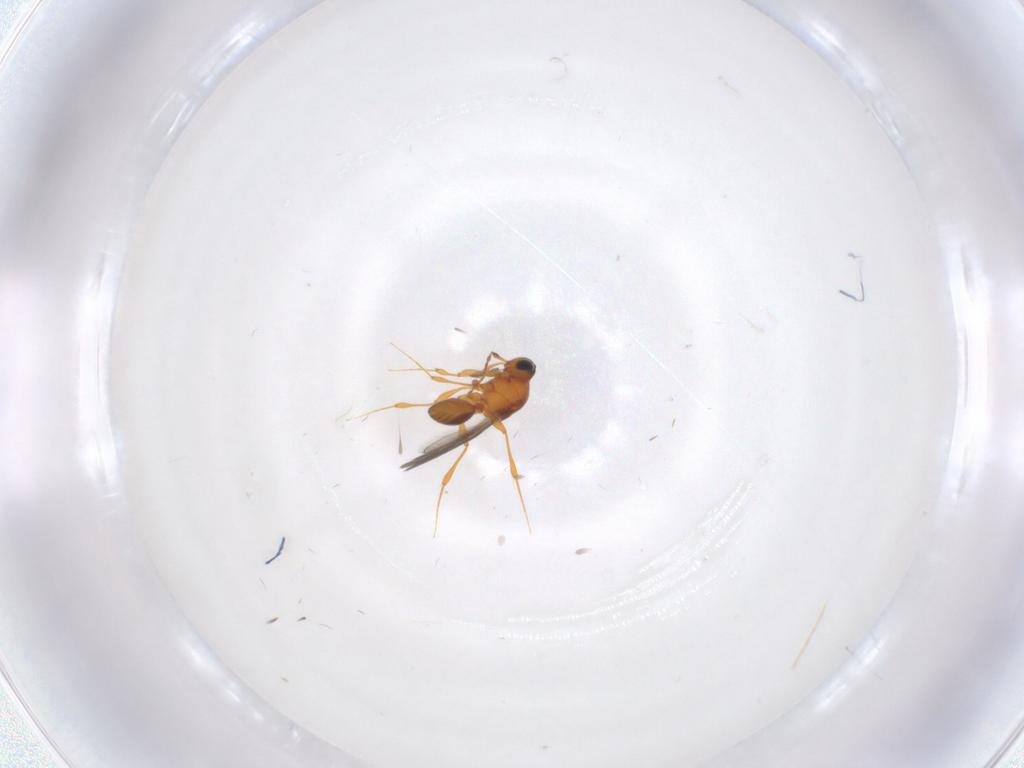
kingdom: Animalia
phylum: Arthropoda
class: Insecta
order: Hymenoptera
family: Platygastridae
